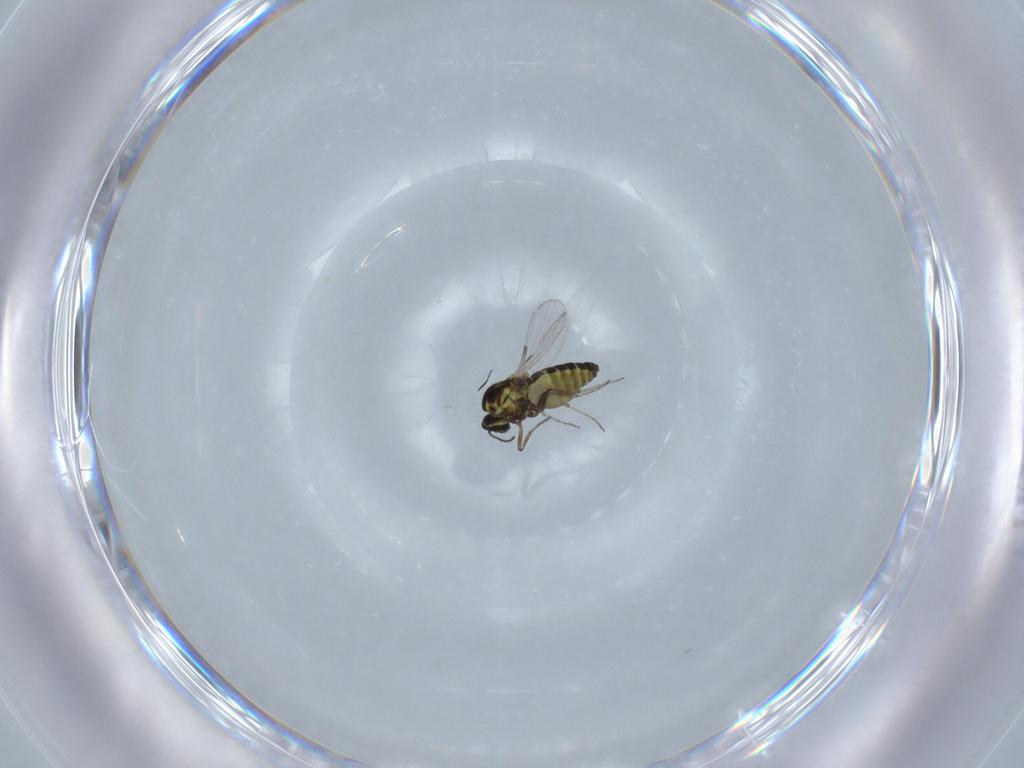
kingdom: Animalia
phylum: Arthropoda
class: Insecta
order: Diptera
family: Ceratopogonidae
